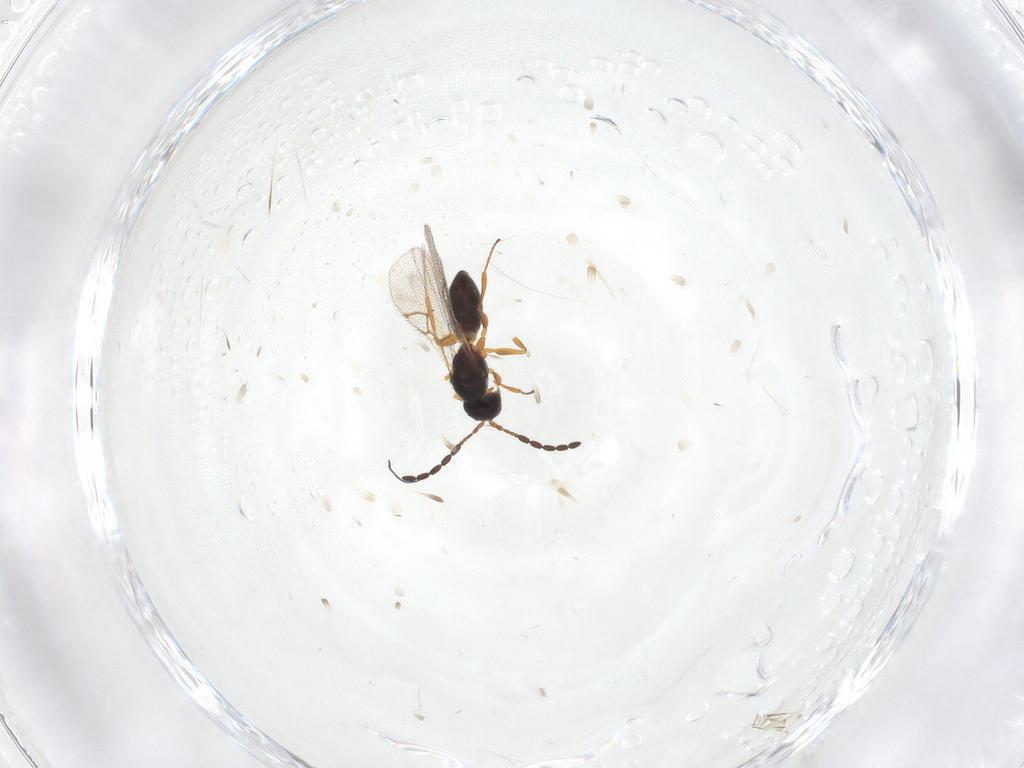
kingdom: Animalia
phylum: Arthropoda
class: Insecta
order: Hymenoptera
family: Figitidae
